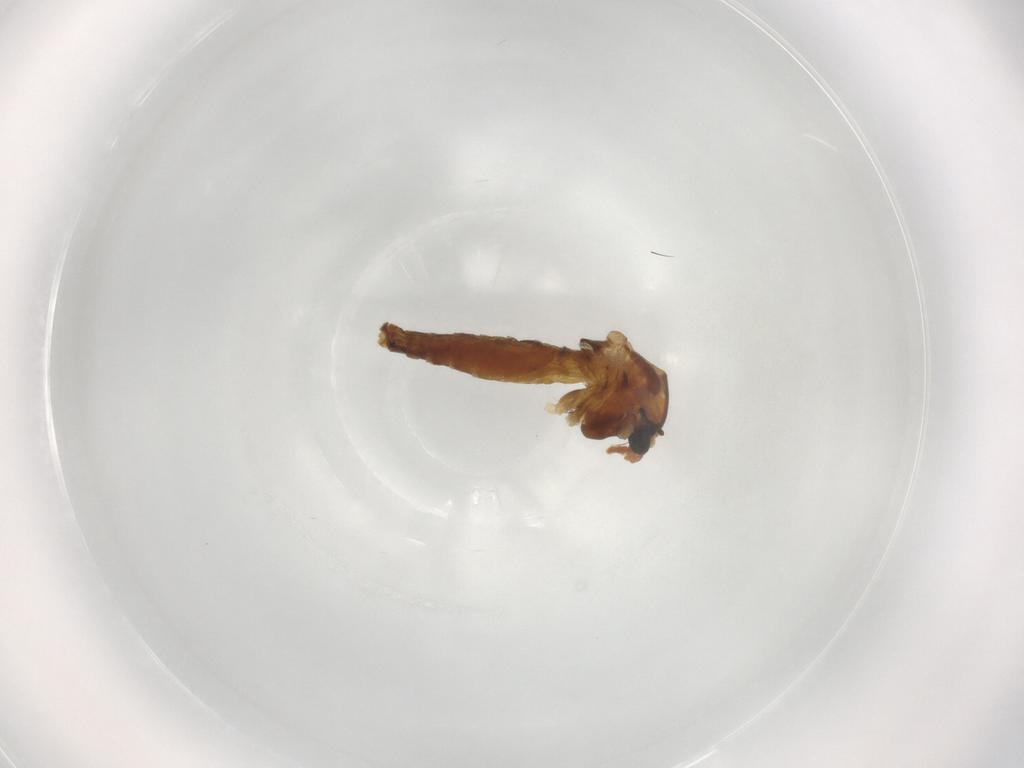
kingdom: Animalia
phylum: Arthropoda
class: Insecta
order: Diptera
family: Chironomidae
